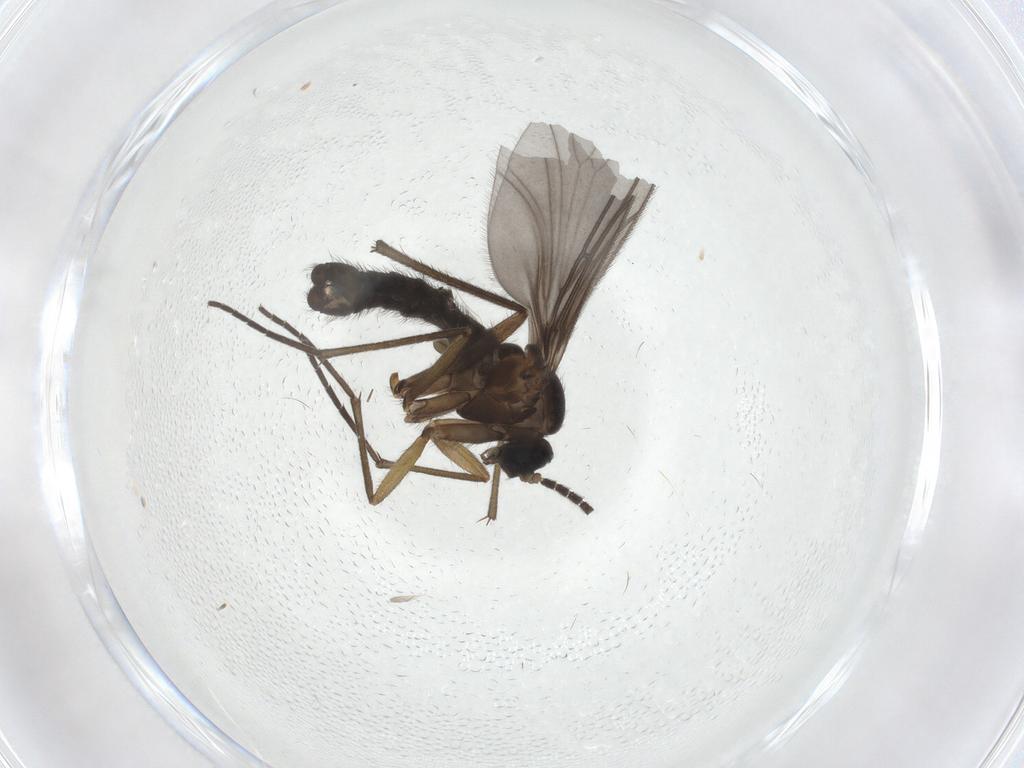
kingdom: Animalia
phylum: Arthropoda
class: Insecta
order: Diptera
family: Sciaridae
